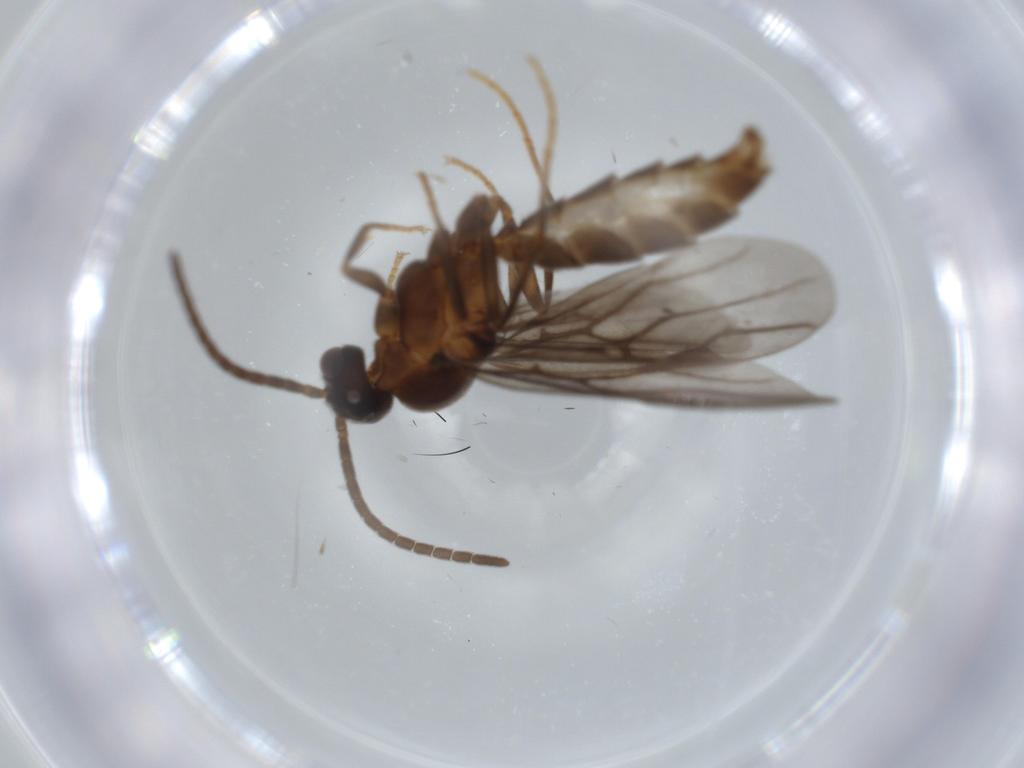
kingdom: Animalia
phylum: Arthropoda
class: Insecta
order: Hymenoptera
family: Formicidae
